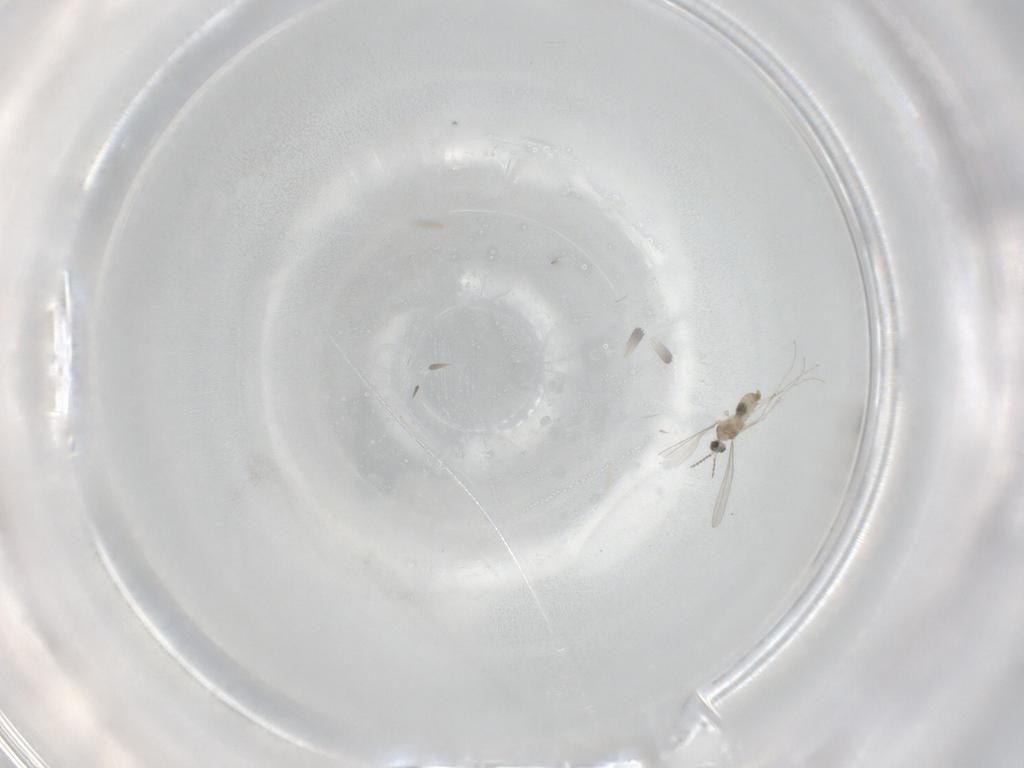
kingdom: Animalia
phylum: Arthropoda
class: Insecta
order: Diptera
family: Cecidomyiidae
